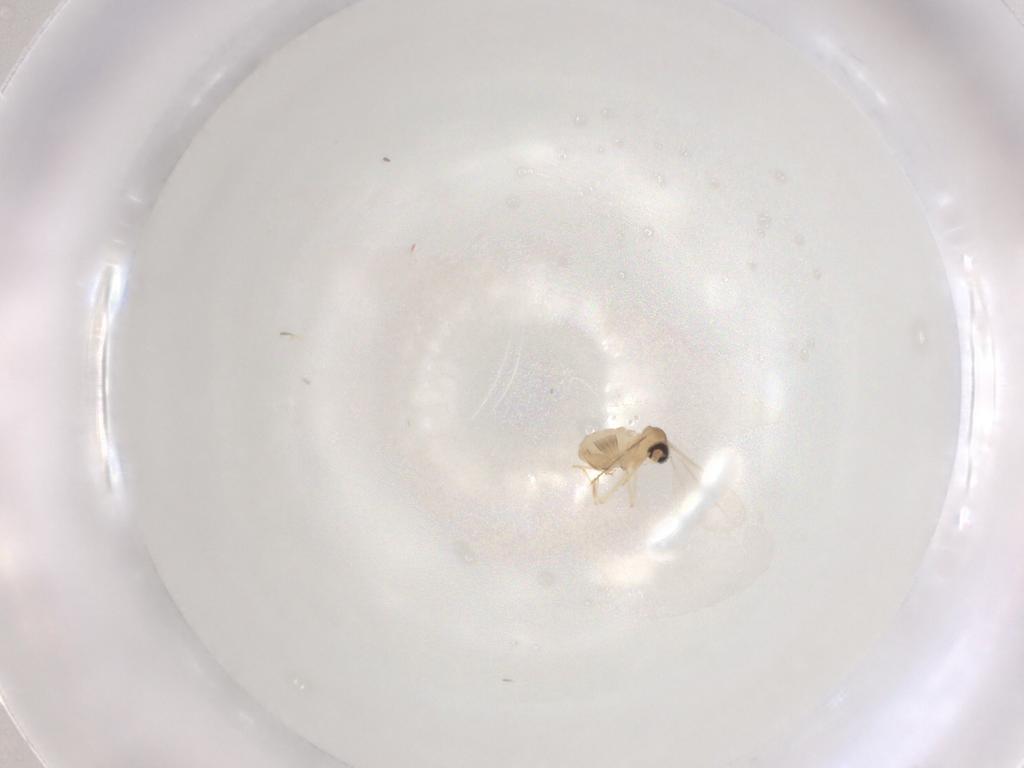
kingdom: Animalia
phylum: Arthropoda
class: Insecta
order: Diptera
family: Cecidomyiidae
